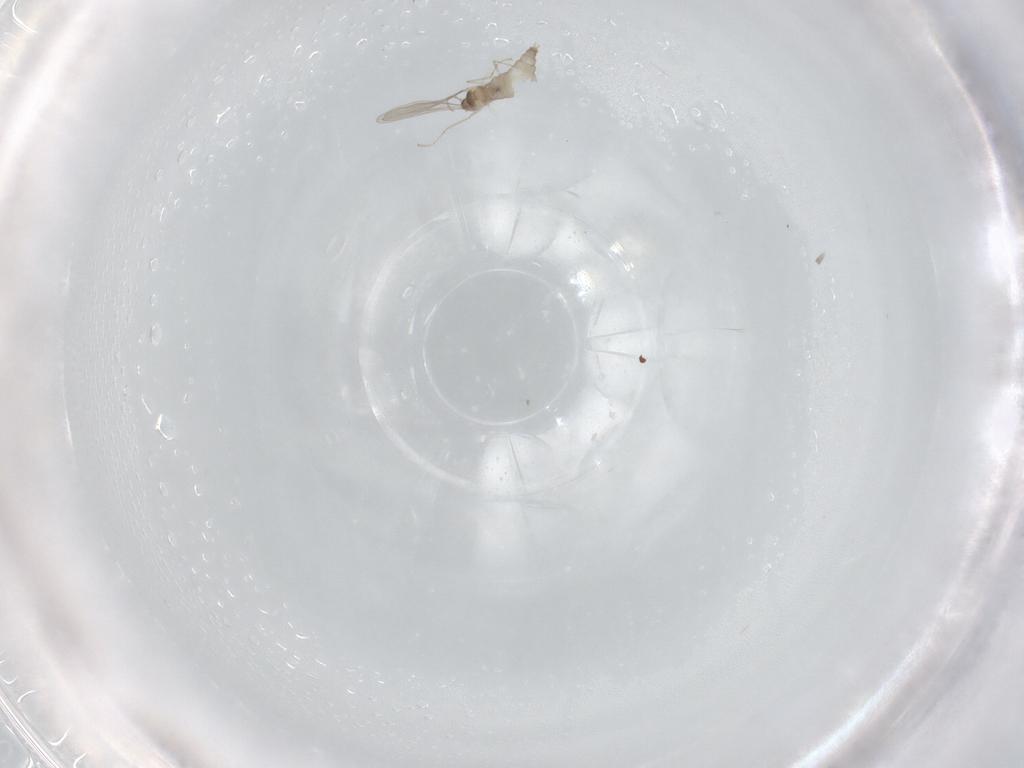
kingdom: Animalia
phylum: Arthropoda
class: Insecta
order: Diptera
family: Cecidomyiidae
